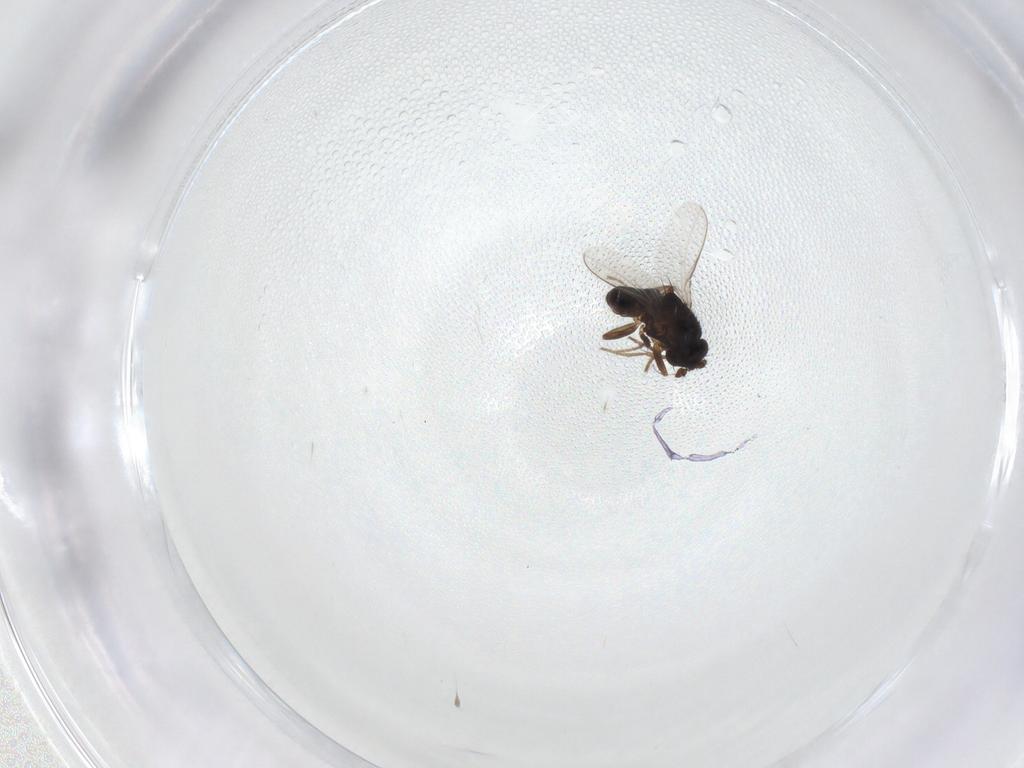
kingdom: Animalia
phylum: Arthropoda
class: Insecta
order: Diptera
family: Sphaeroceridae
